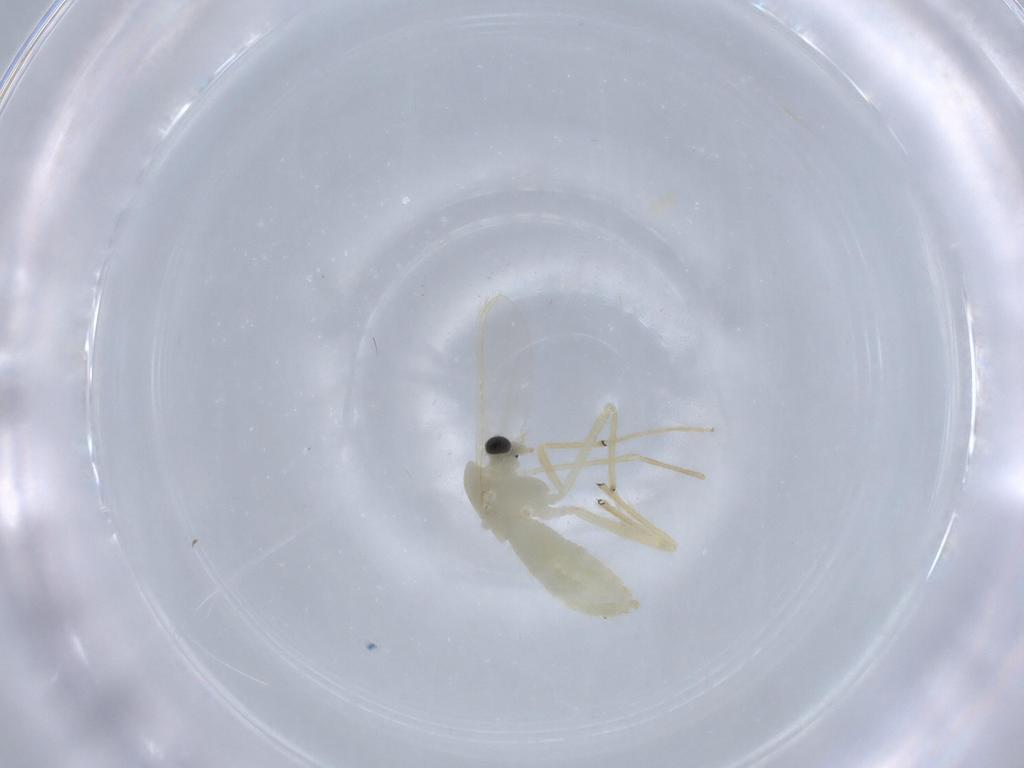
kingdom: Animalia
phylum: Arthropoda
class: Insecta
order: Diptera
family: Chironomidae
